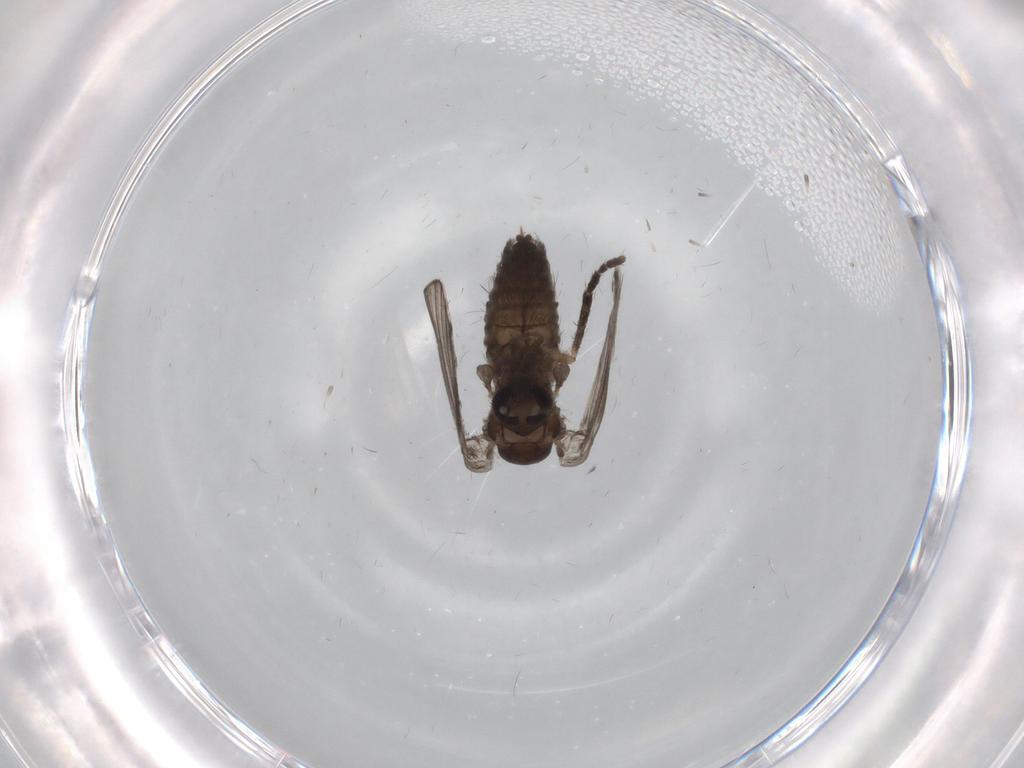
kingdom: Animalia
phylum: Arthropoda
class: Insecta
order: Diptera
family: Psychodidae
